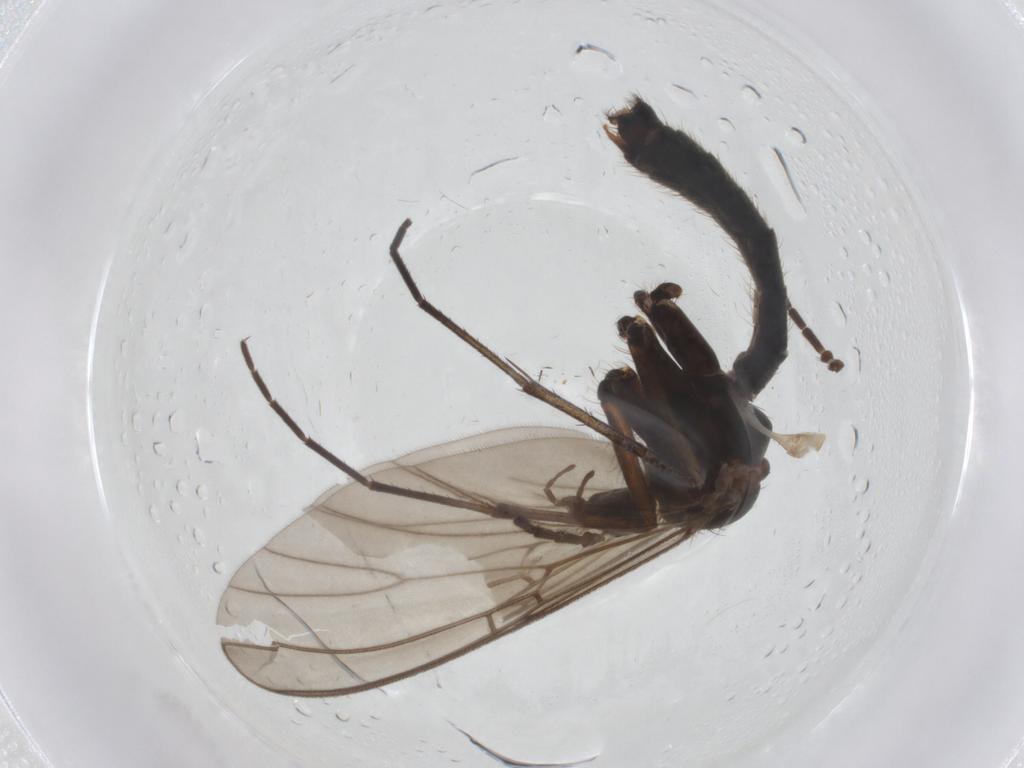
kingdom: Animalia
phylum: Arthropoda
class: Insecta
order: Diptera
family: Mycetophilidae
